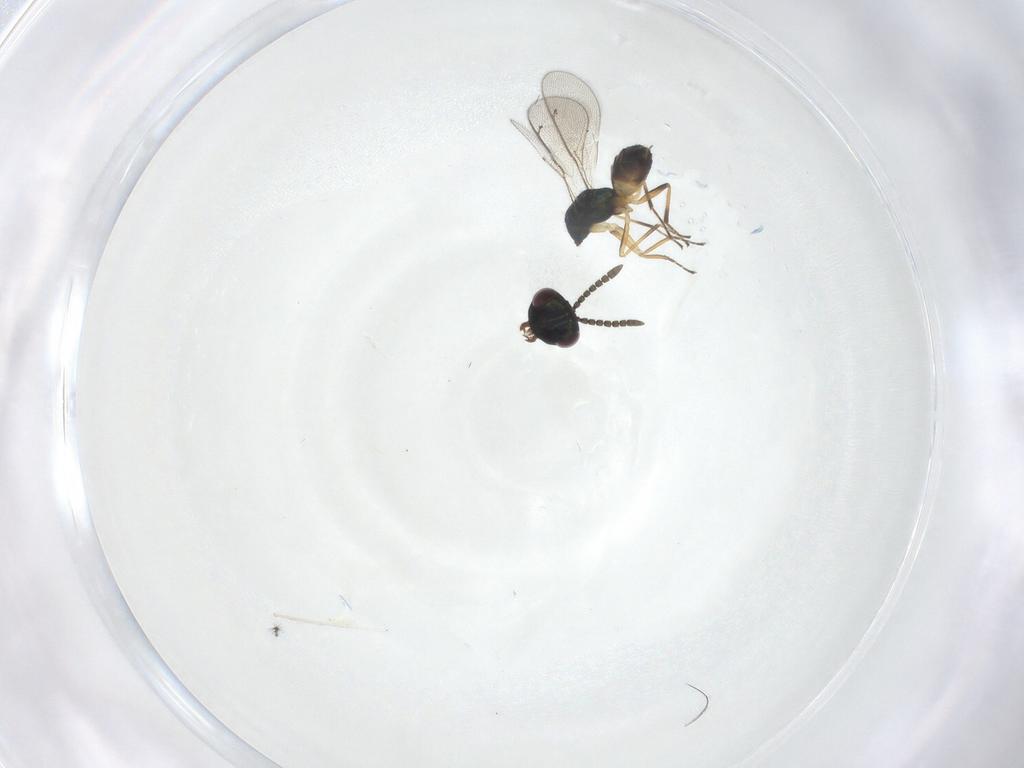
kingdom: Animalia
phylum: Arthropoda
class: Insecta
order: Hymenoptera
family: Eulophidae
